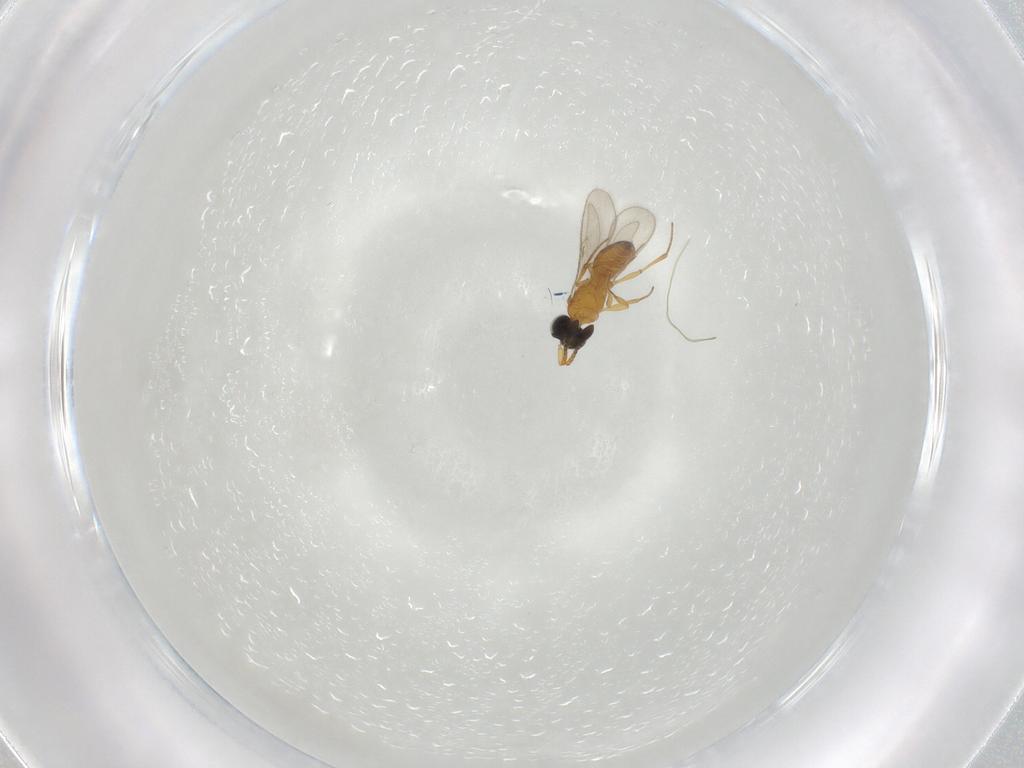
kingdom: Animalia
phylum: Arthropoda
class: Insecta
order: Hymenoptera
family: Scelionidae
